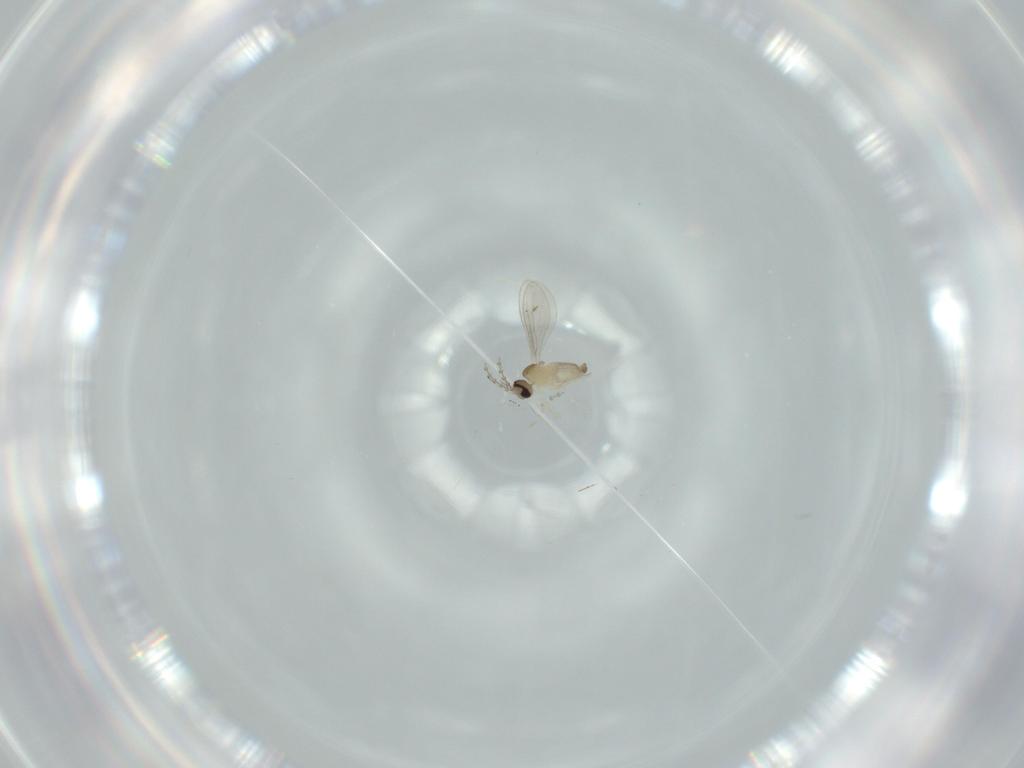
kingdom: Animalia
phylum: Arthropoda
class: Insecta
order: Diptera
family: Cecidomyiidae
